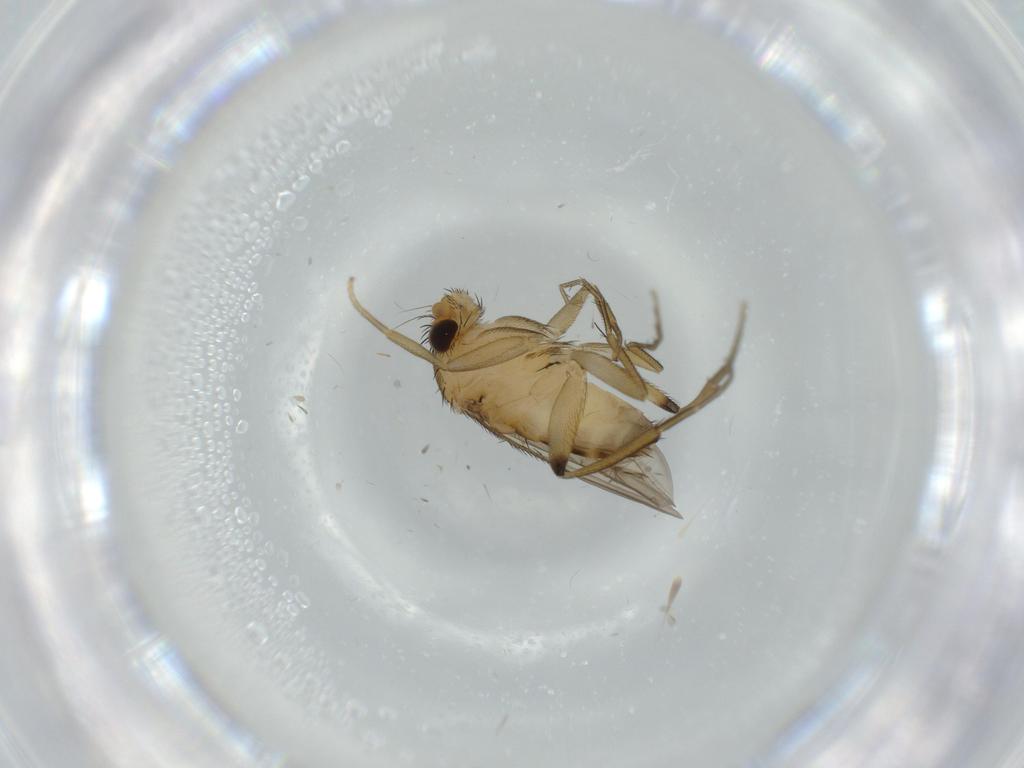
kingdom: Animalia
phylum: Arthropoda
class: Insecta
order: Diptera
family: Phoridae
